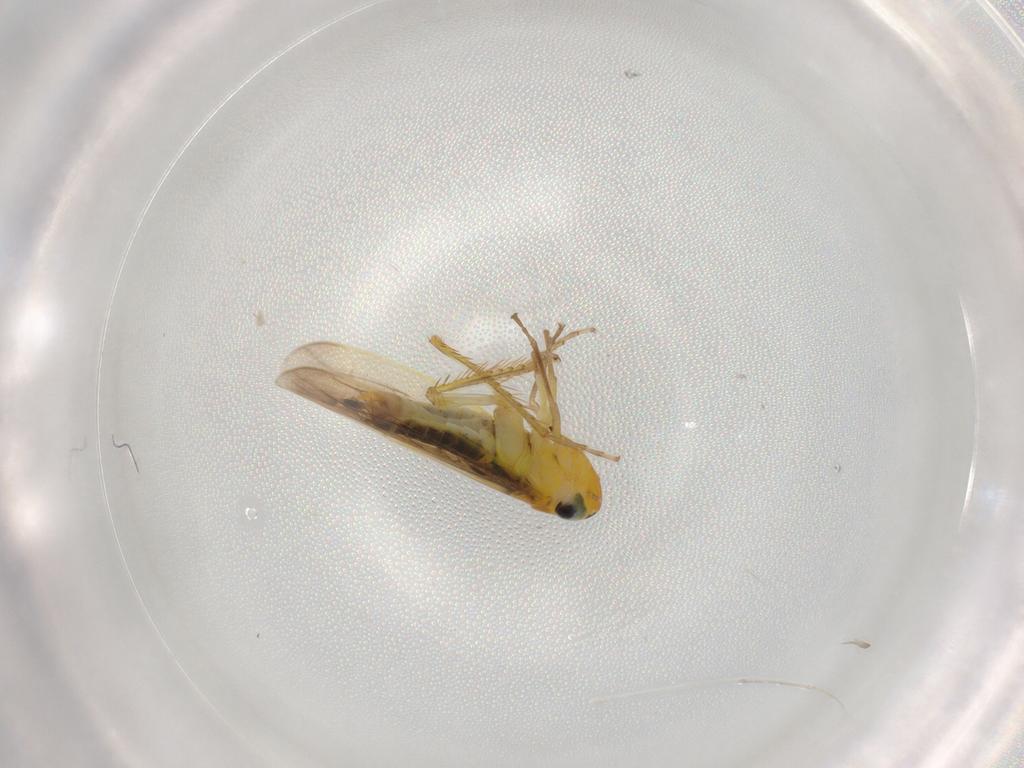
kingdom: Animalia
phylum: Arthropoda
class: Insecta
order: Hemiptera
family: Cicadellidae
